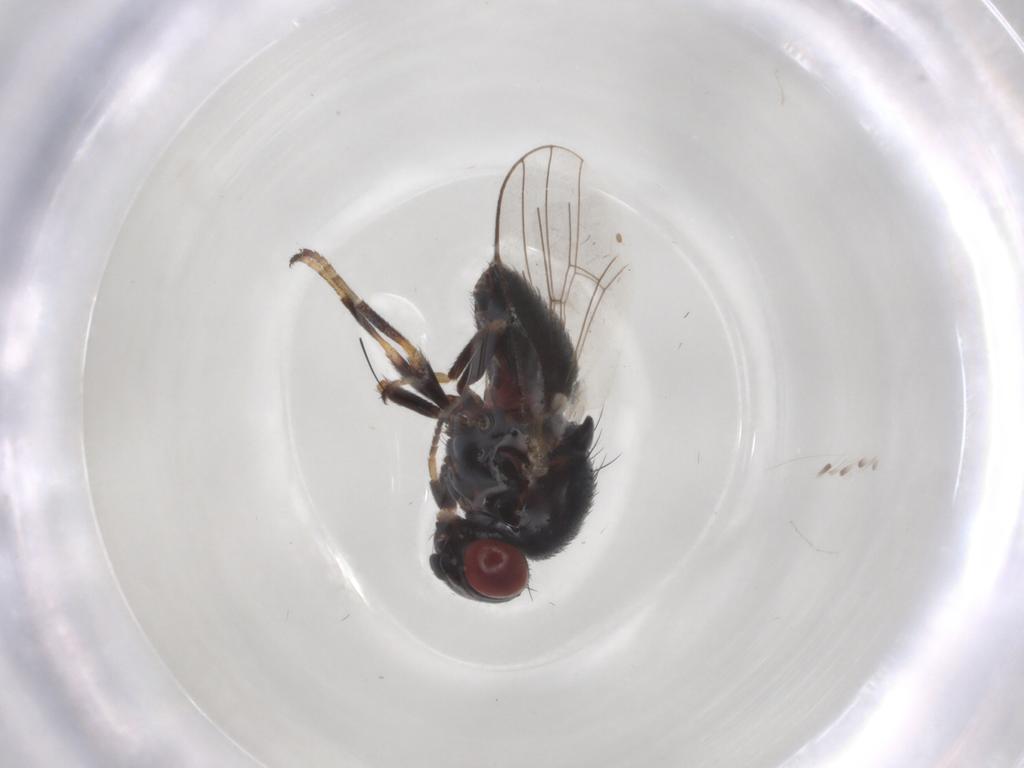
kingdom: Animalia
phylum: Arthropoda
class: Insecta
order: Diptera
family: Chamaemyiidae
